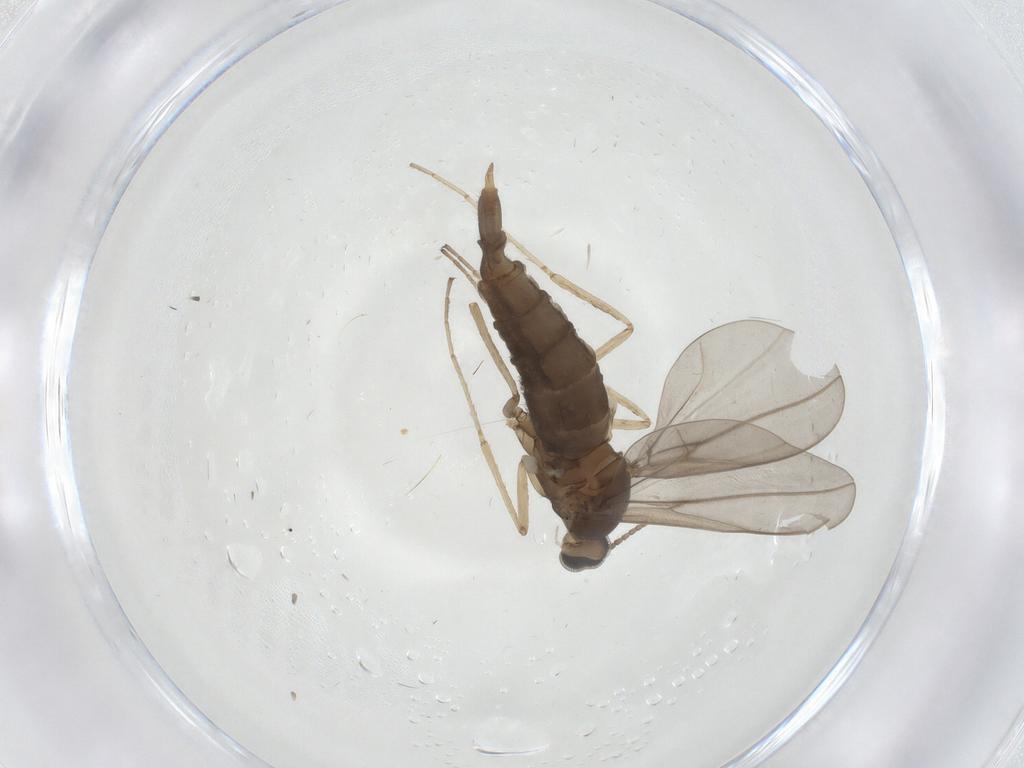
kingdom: Animalia
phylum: Arthropoda
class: Insecta
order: Diptera
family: Cecidomyiidae
